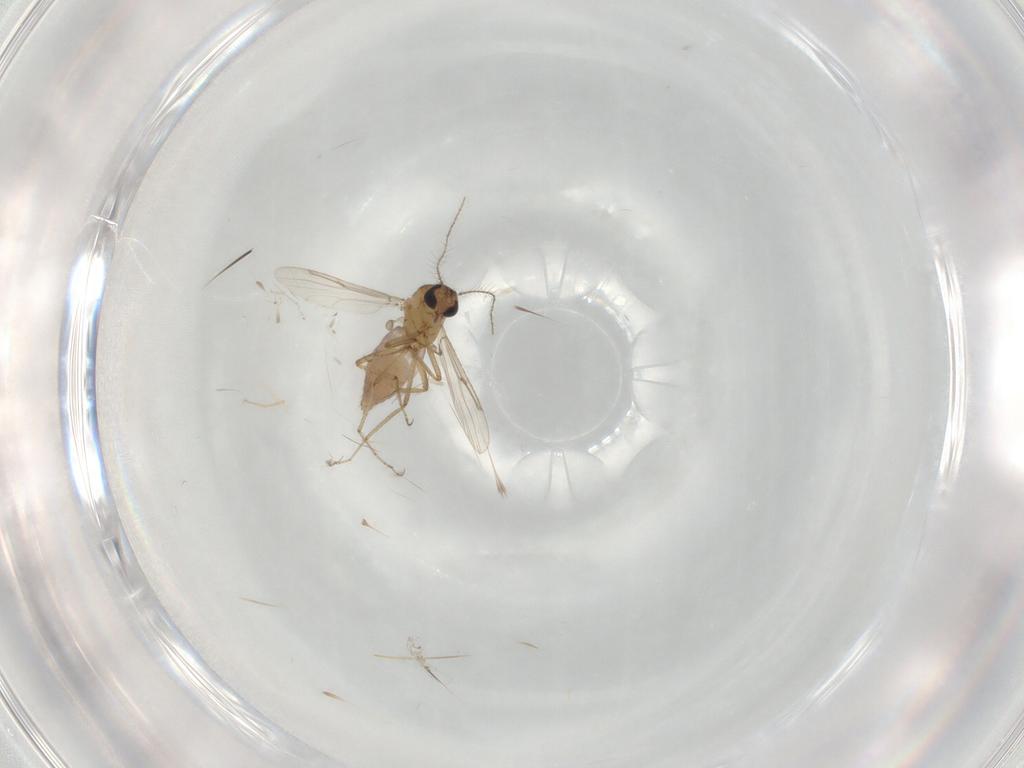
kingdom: Animalia
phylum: Arthropoda
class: Insecta
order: Diptera
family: Ceratopogonidae
